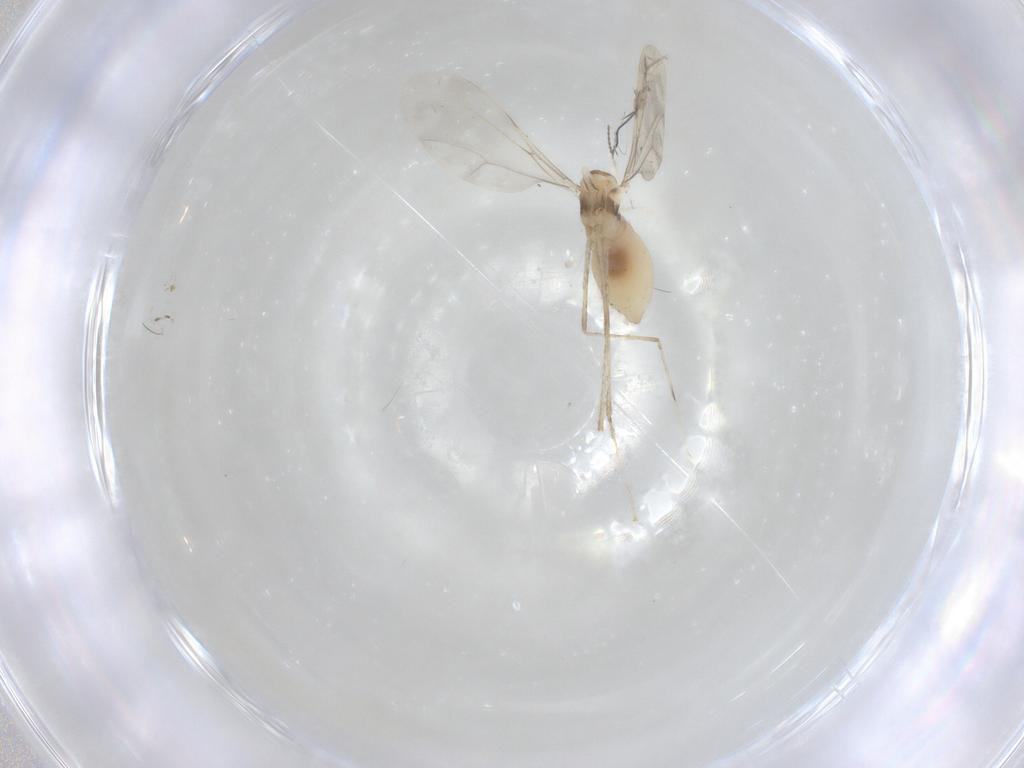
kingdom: Animalia
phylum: Arthropoda
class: Insecta
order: Diptera
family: Cecidomyiidae
